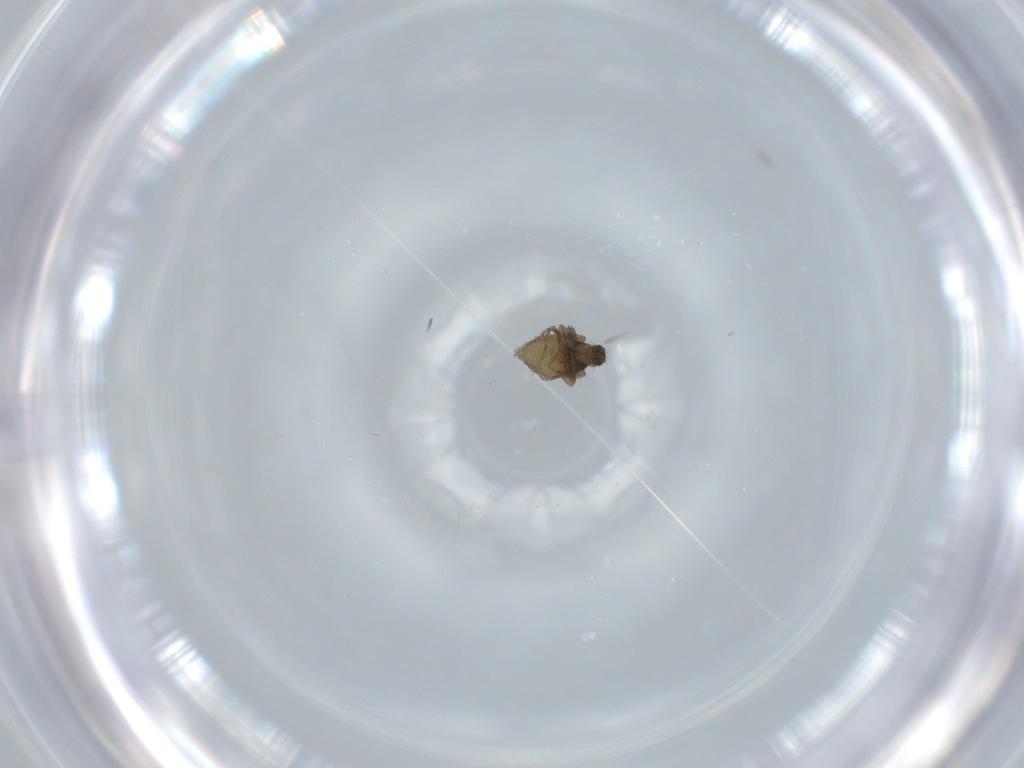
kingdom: Animalia
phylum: Arthropoda
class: Insecta
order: Diptera
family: Phoridae
